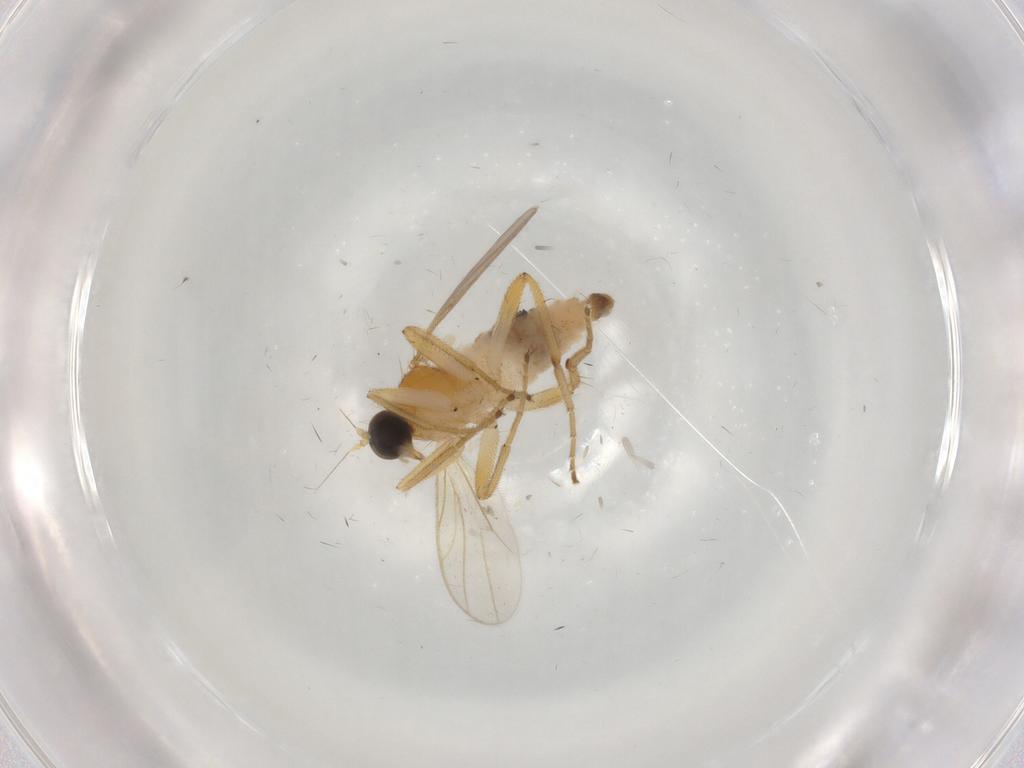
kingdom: Animalia
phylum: Arthropoda
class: Insecta
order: Diptera
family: Hybotidae
